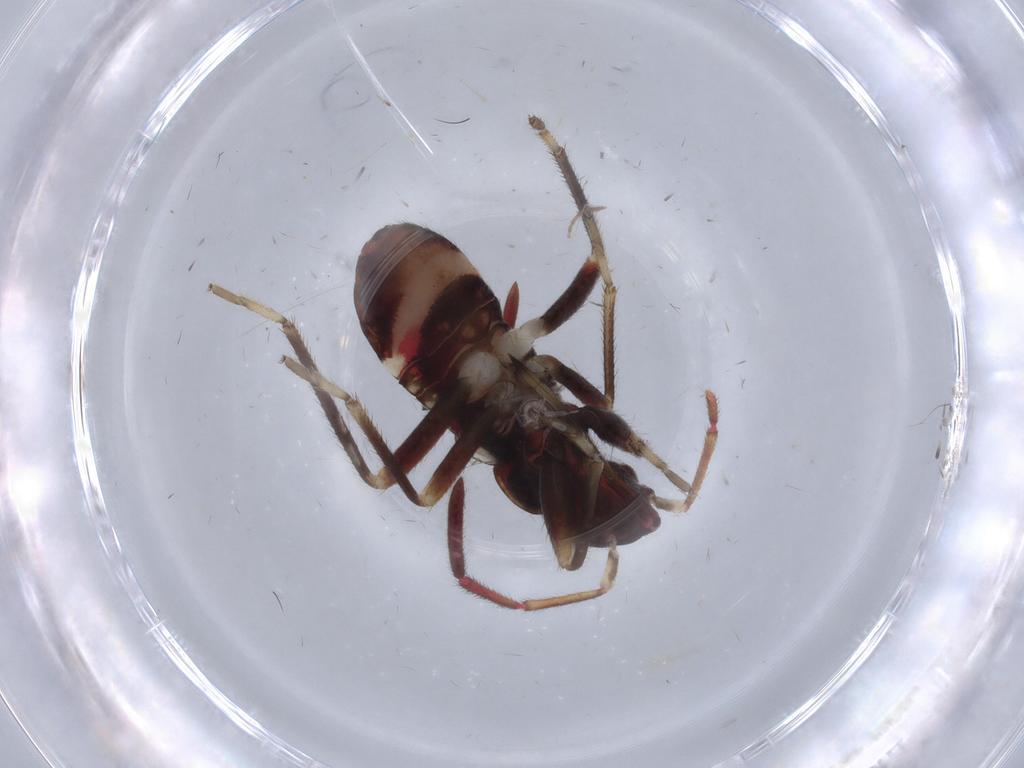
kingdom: Animalia
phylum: Arthropoda
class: Insecta
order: Hemiptera
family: Rhyparochromidae
